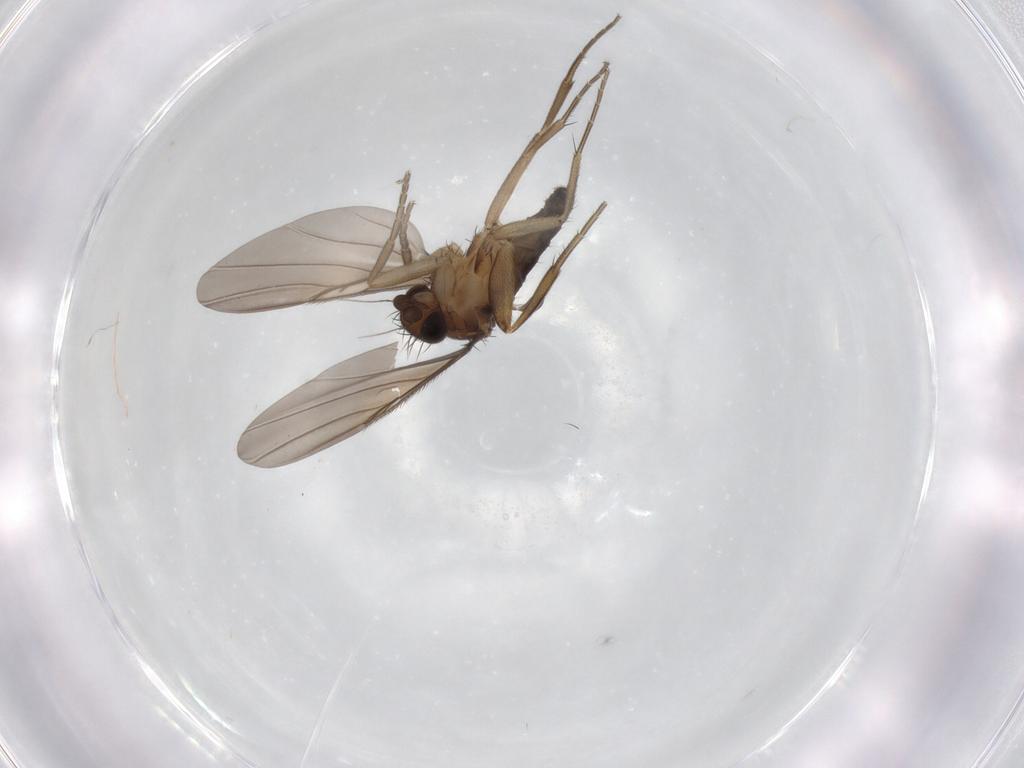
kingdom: Animalia
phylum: Arthropoda
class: Insecta
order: Diptera
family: Phoridae
